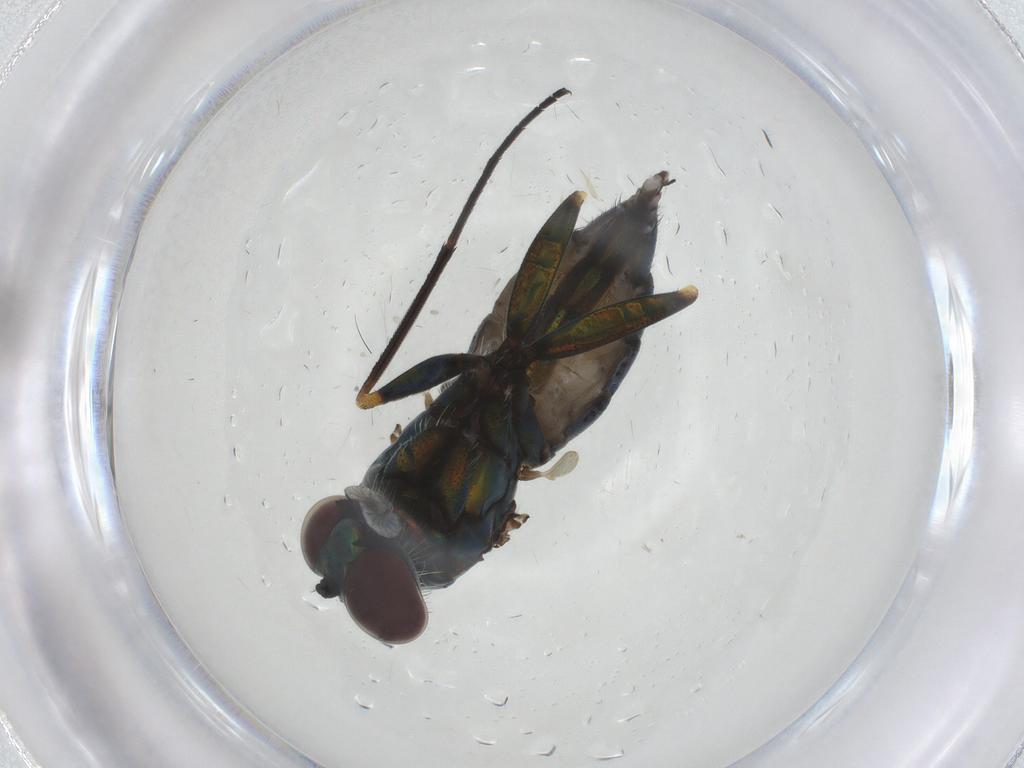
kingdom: Animalia
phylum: Arthropoda
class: Insecta
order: Diptera
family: Dolichopodidae
